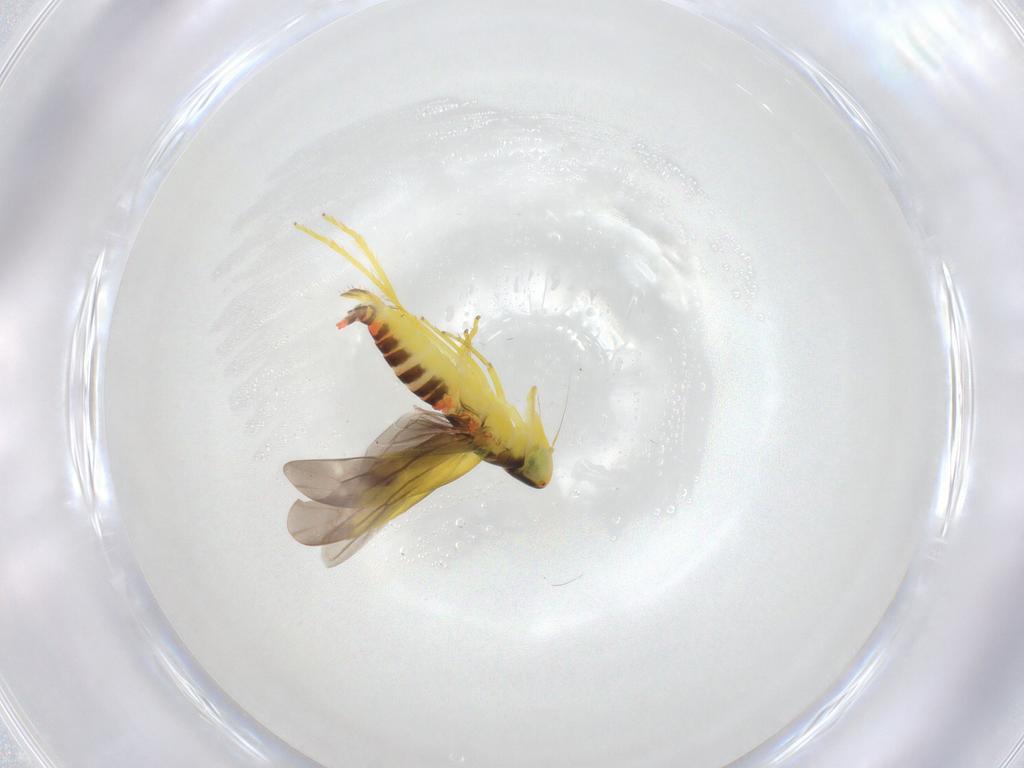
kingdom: Animalia
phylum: Arthropoda
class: Insecta
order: Hemiptera
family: Cicadellidae
